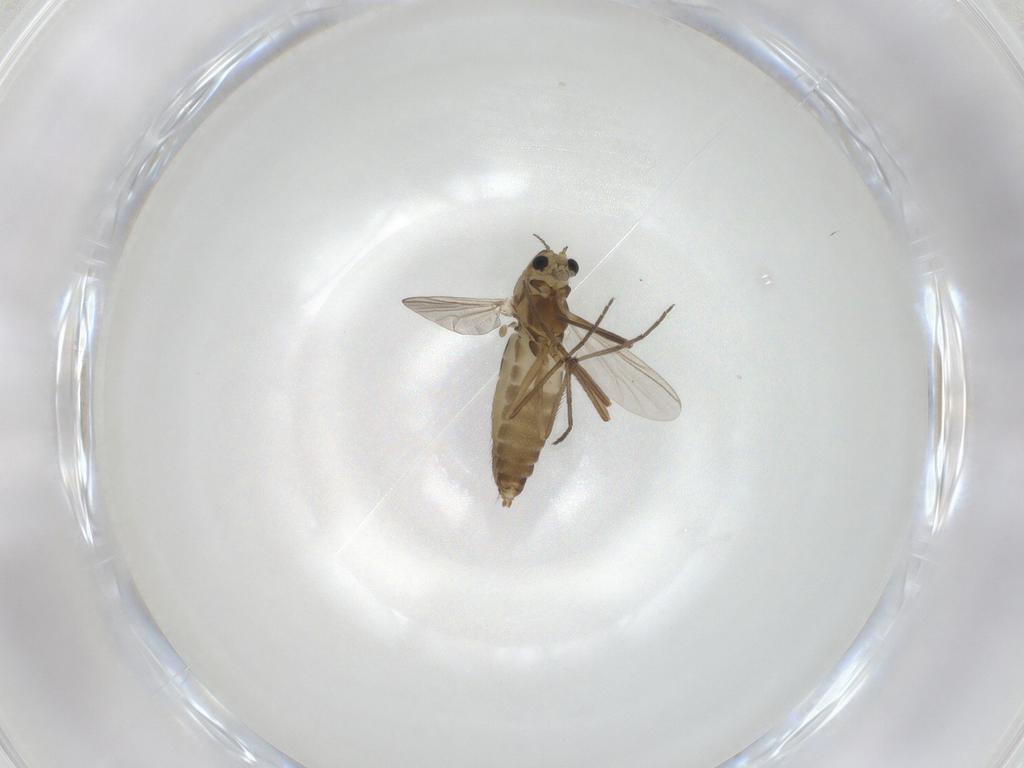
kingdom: Animalia
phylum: Arthropoda
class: Insecta
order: Diptera
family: Chironomidae
